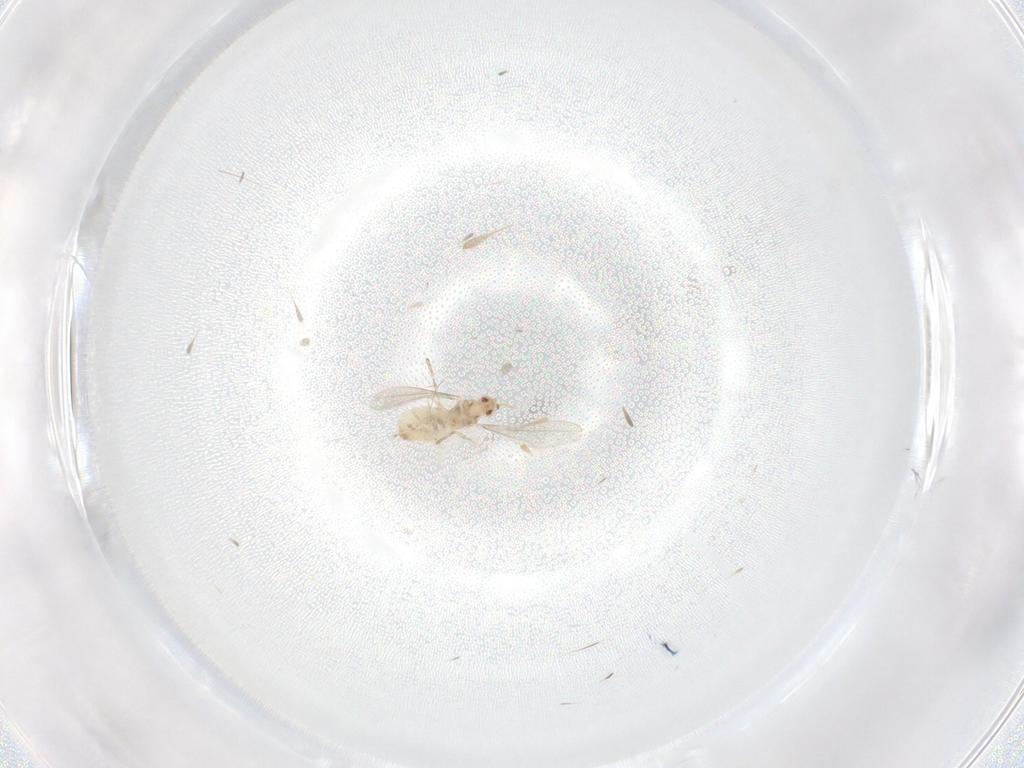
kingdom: Animalia
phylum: Arthropoda
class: Insecta
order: Diptera
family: Cecidomyiidae
